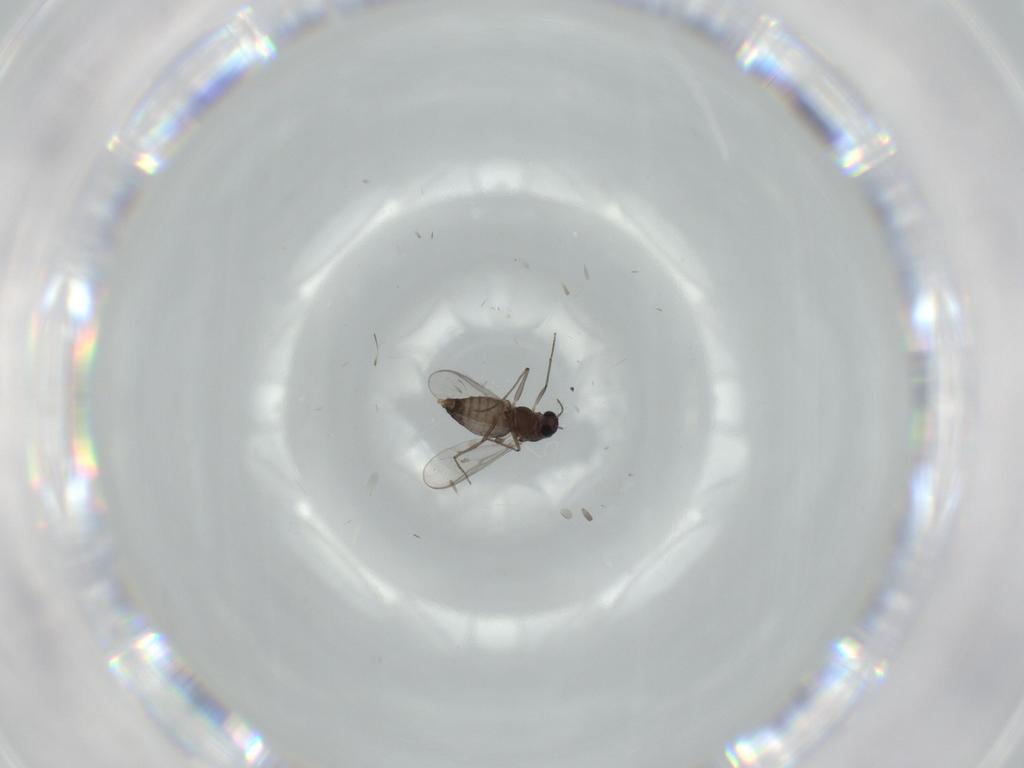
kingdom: Animalia
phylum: Arthropoda
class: Insecta
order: Diptera
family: Chironomidae
